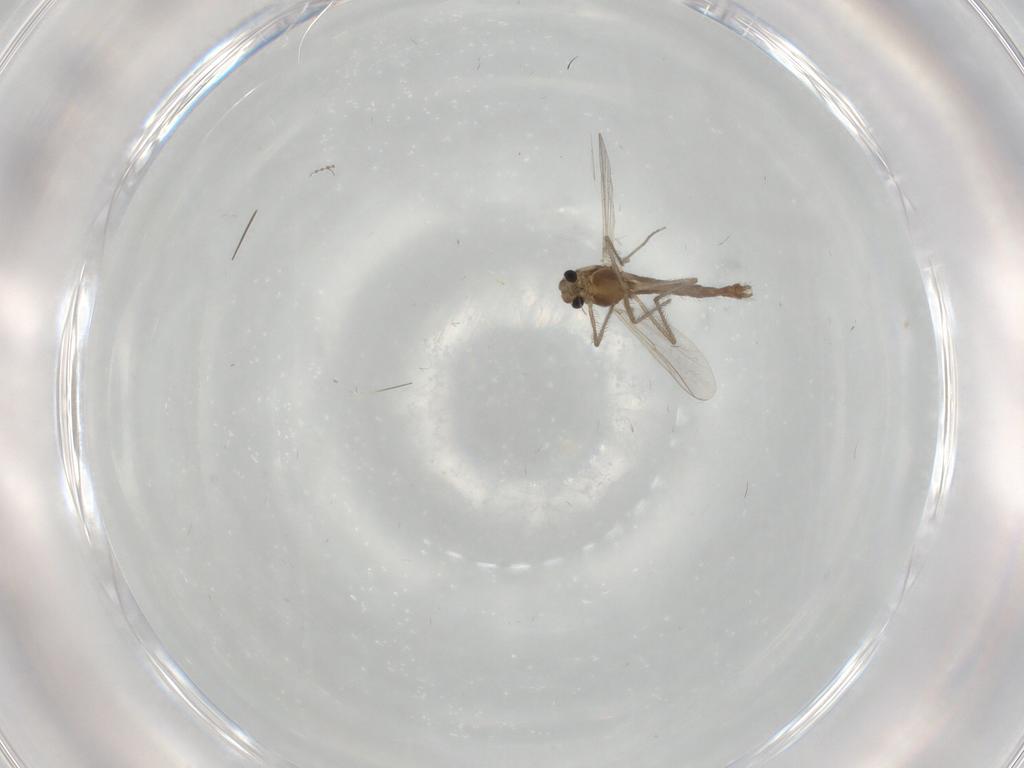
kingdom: Animalia
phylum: Arthropoda
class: Insecta
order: Diptera
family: Chironomidae
